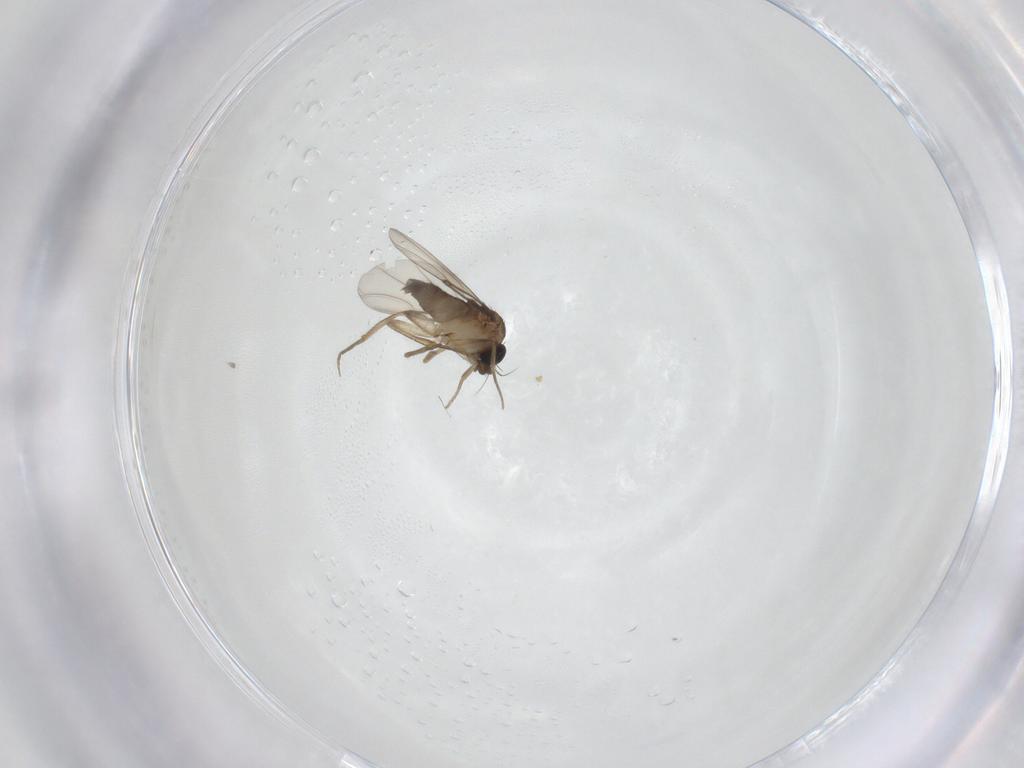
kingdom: Animalia
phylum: Arthropoda
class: Insecta
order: Diptera
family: Phoridae
